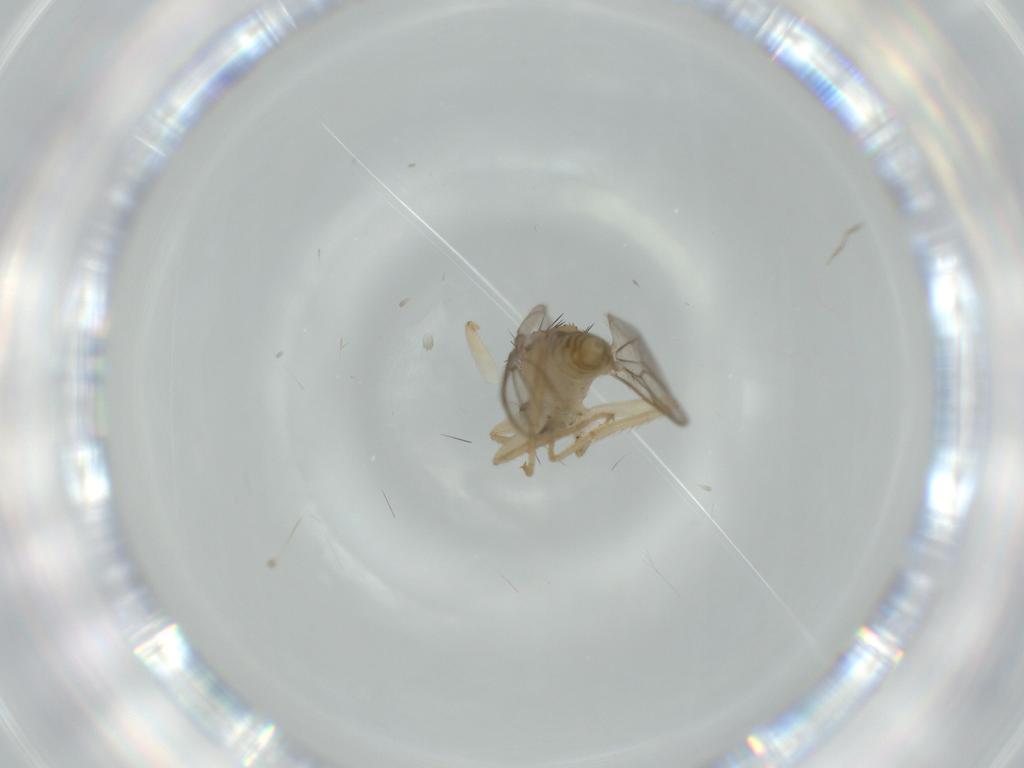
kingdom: Animalia
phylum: Arthropoda
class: Insecta
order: Diptera
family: Hybotidae
